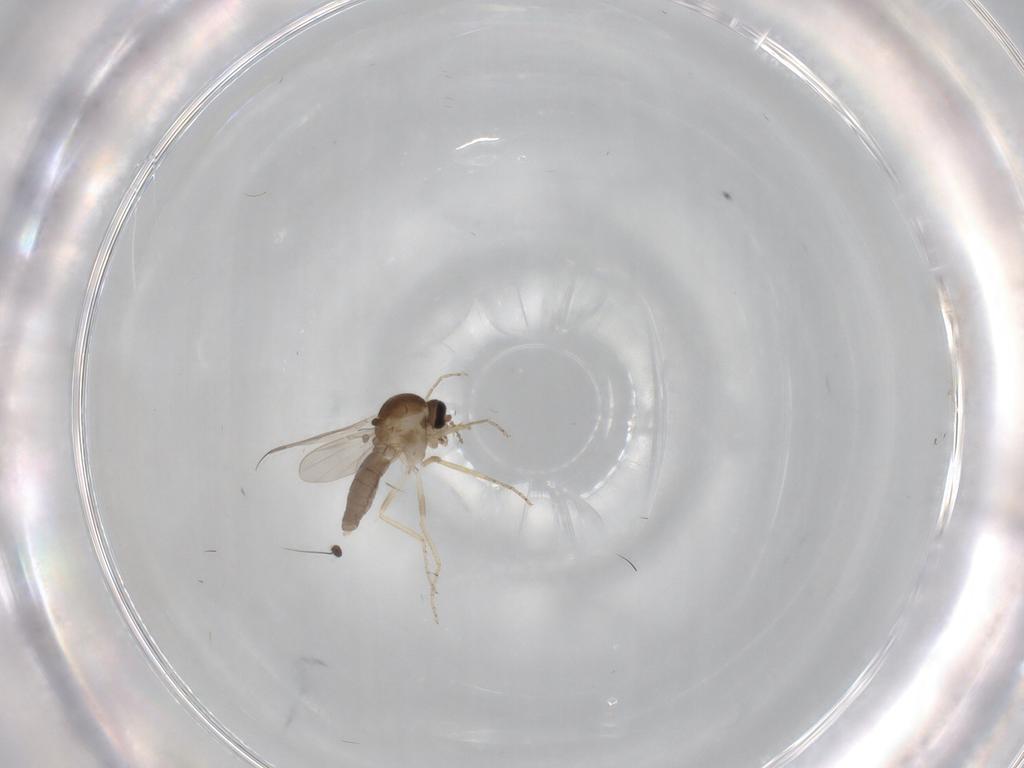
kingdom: Animalia
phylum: Arthropoda
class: Insecta
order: Diptera
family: Ceratopogonidae
